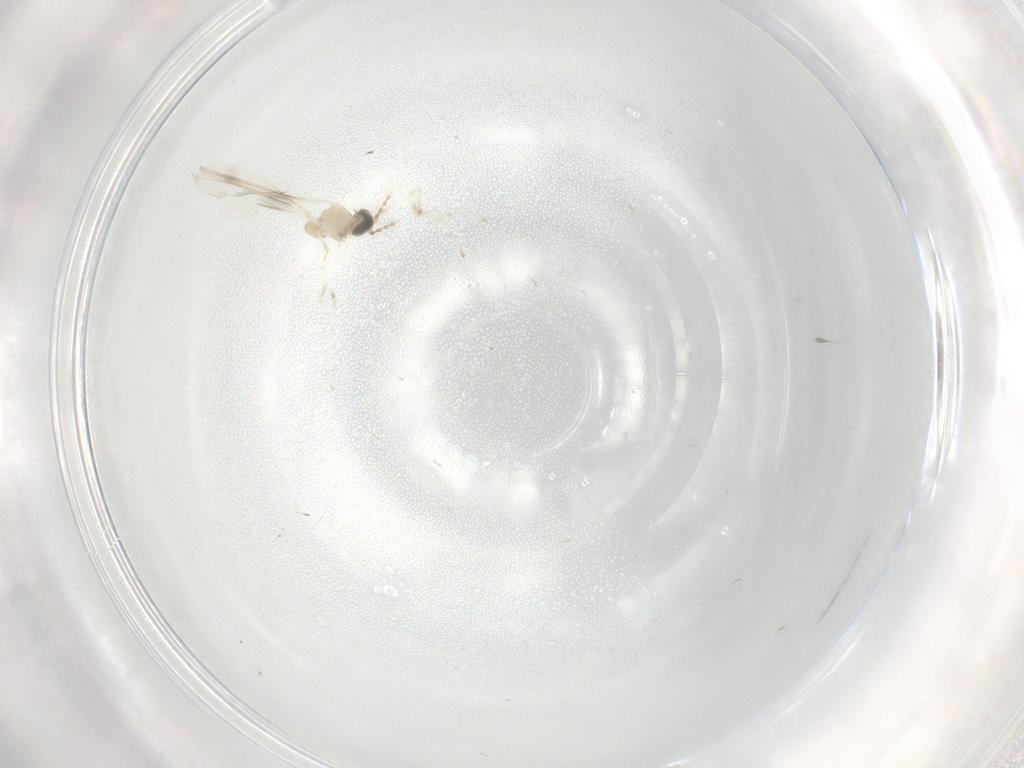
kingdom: Animalia
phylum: Arthropoda
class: Insecta
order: Diptera
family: Cecidomyiidae
